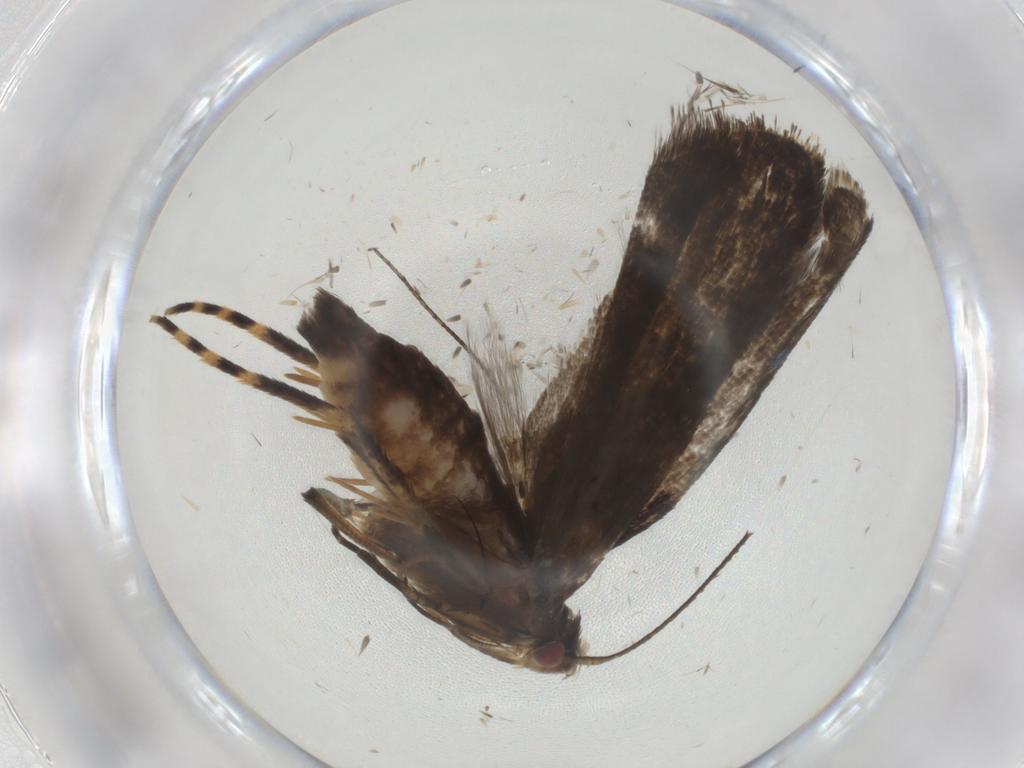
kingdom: Animalia
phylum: Arthropoda
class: Insecta
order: Lepidoptera
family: Gelechiidae
